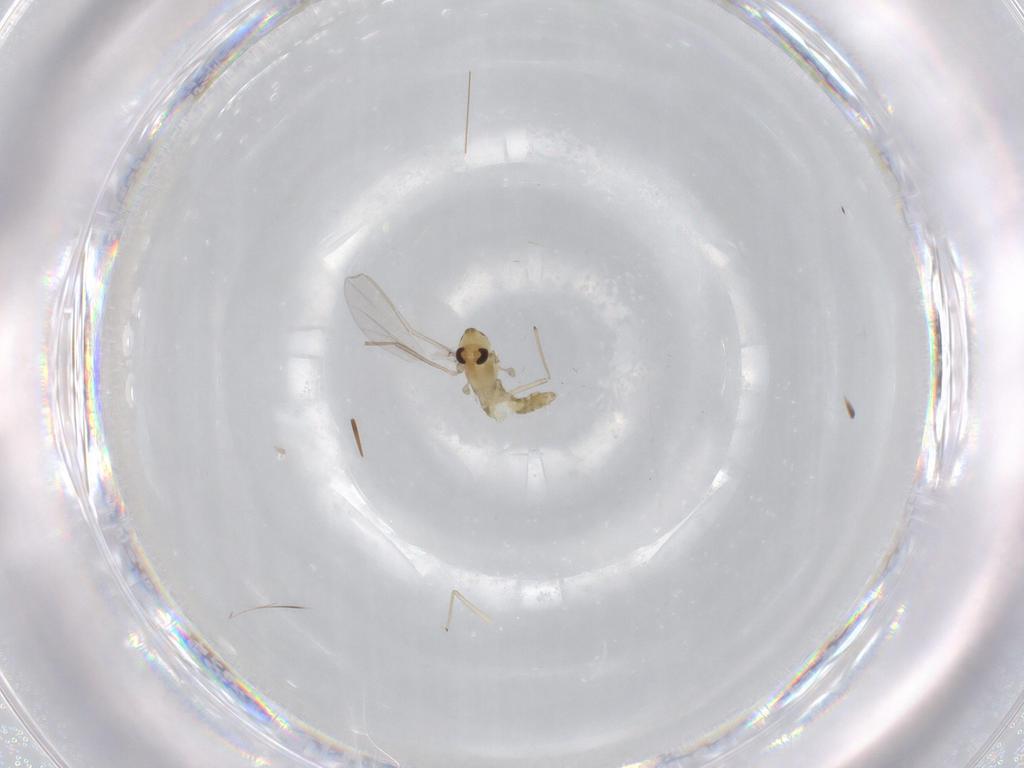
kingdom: Animalia
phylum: Arthropoda
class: Insecta
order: Diptera
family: Chironomidae
